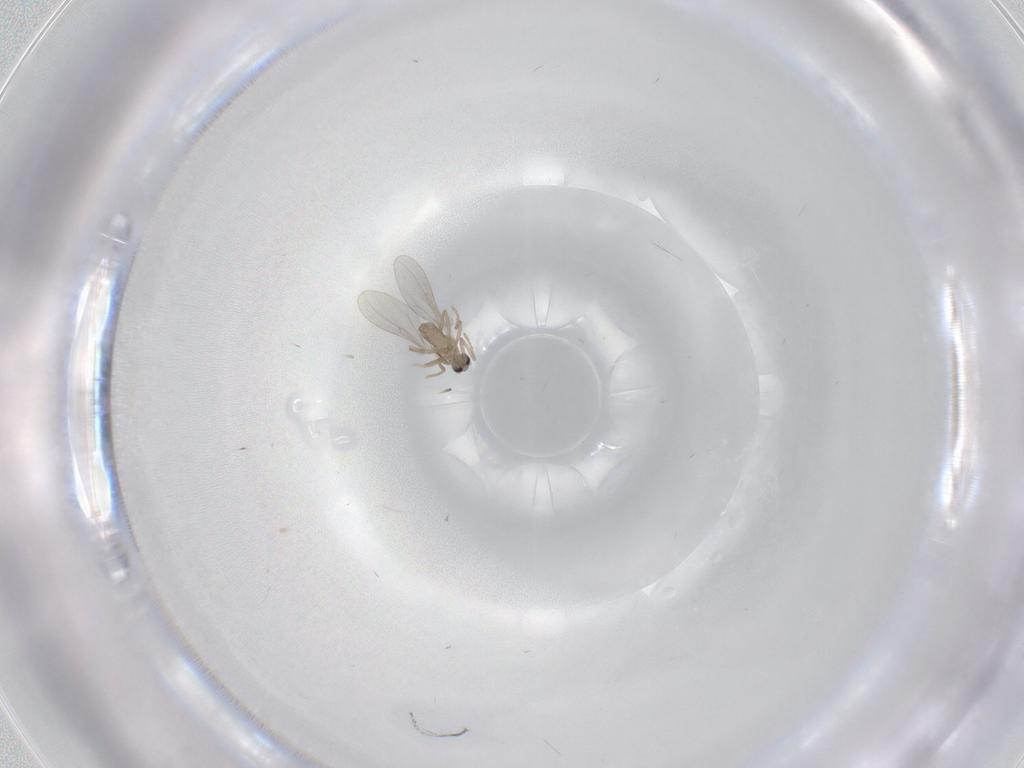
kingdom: Animalia
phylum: Arthropoda
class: Insecta
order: Diptera
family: Cecidomyiidae
